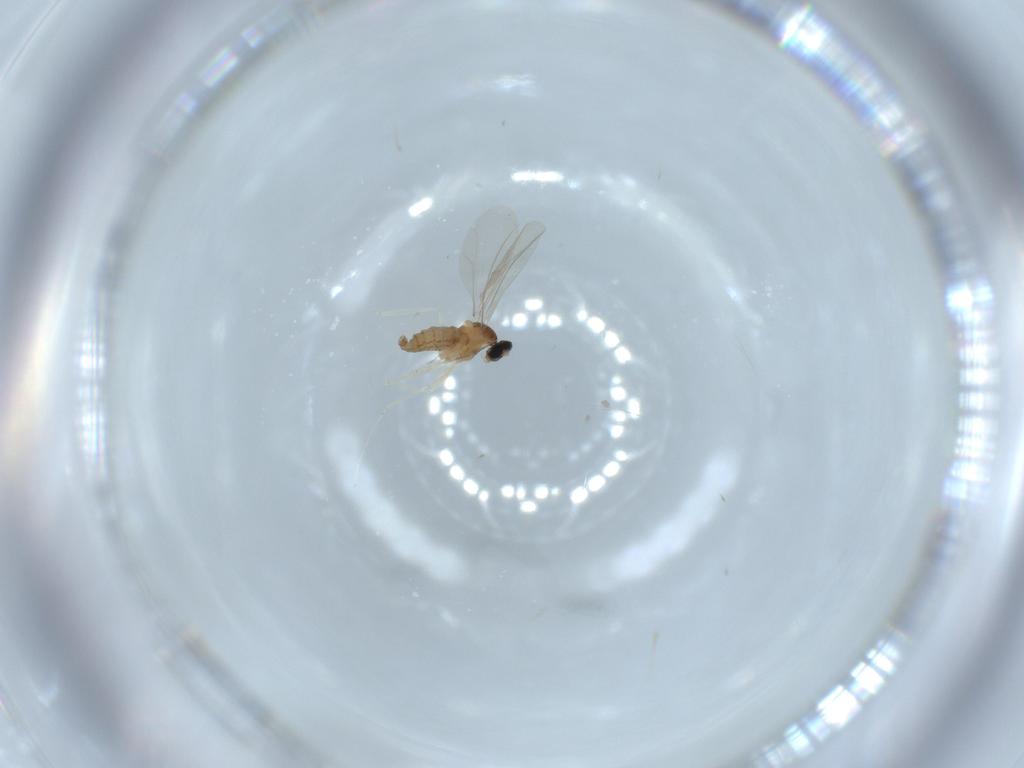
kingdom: Animalia
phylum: Arthropoda
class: Insecta
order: Diptera
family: Cecidomyiidae
